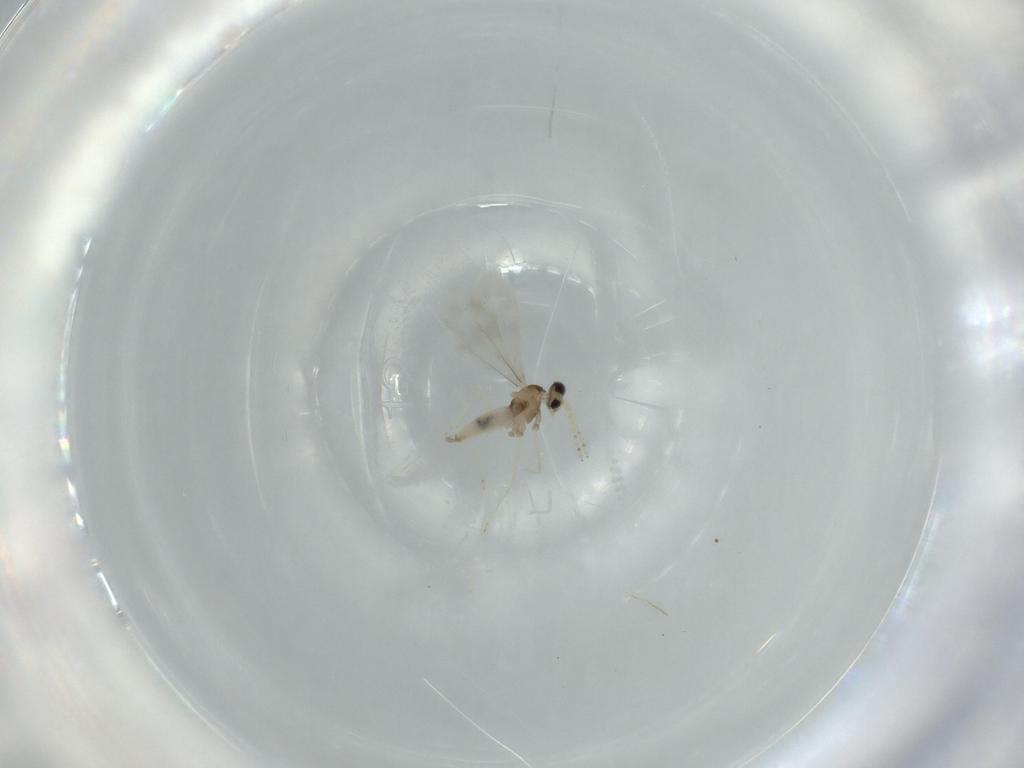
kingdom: Animalia
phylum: Arthropoda
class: Insecta
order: Diptera
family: Cecidomyiidae
